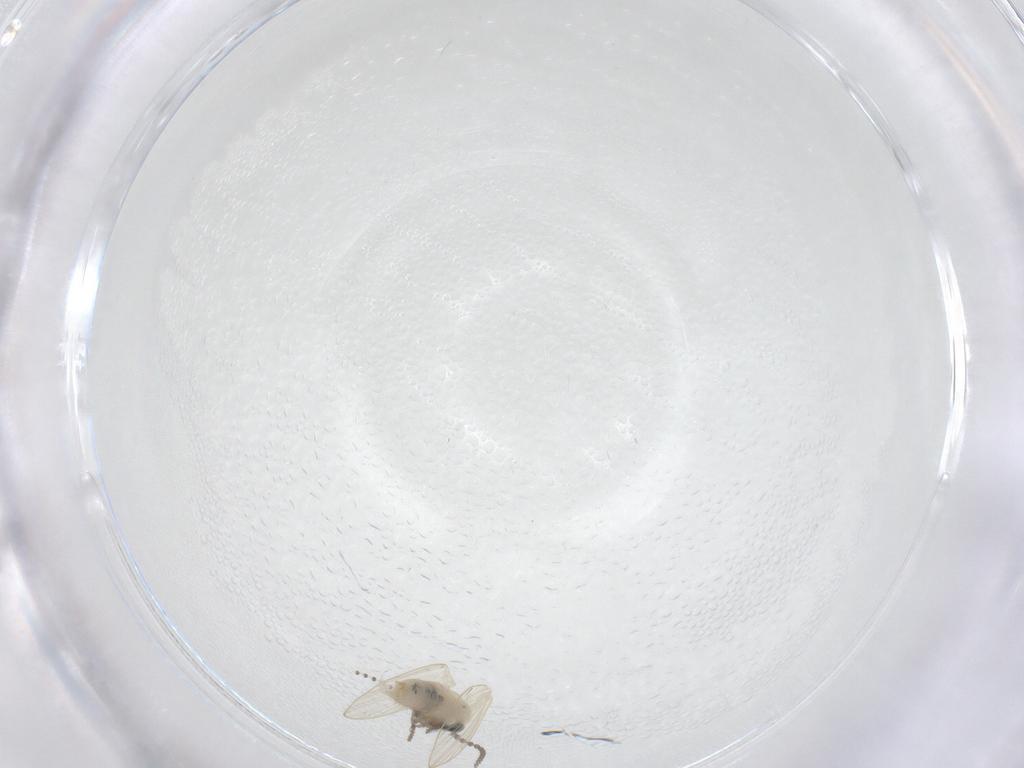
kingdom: Animalia
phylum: Arthropoda
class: Insecta
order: Diptera
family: Psychodidae
